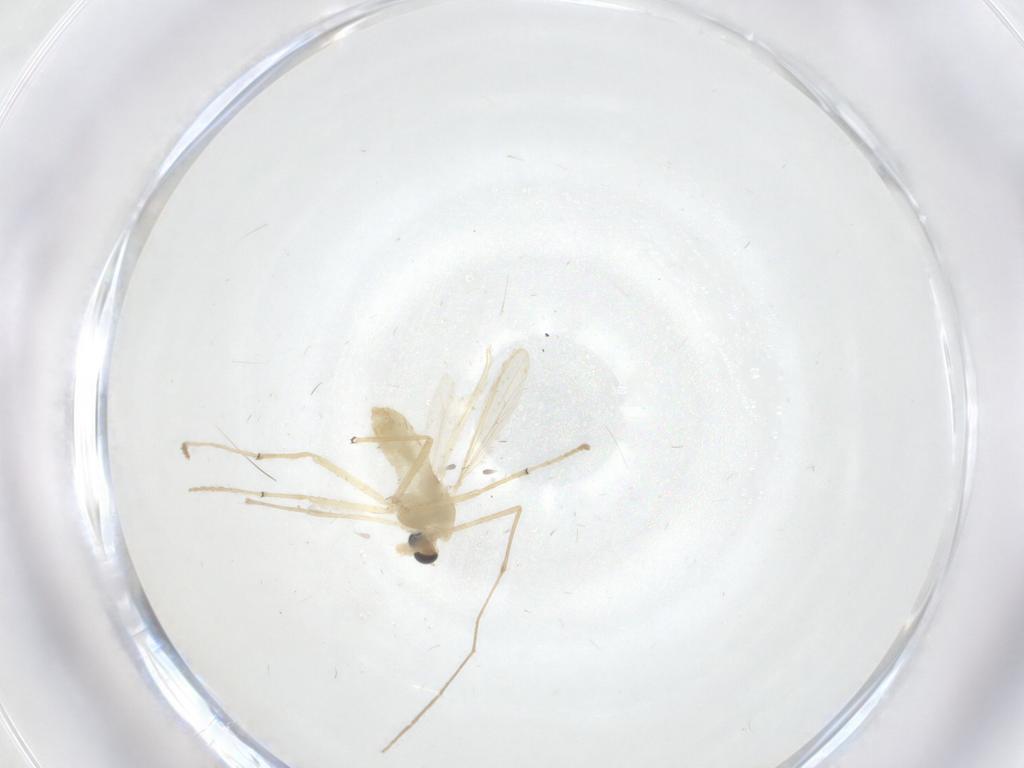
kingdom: Animalia
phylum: Arthropoda
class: Insecta
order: Diptera
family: Chironomidae
